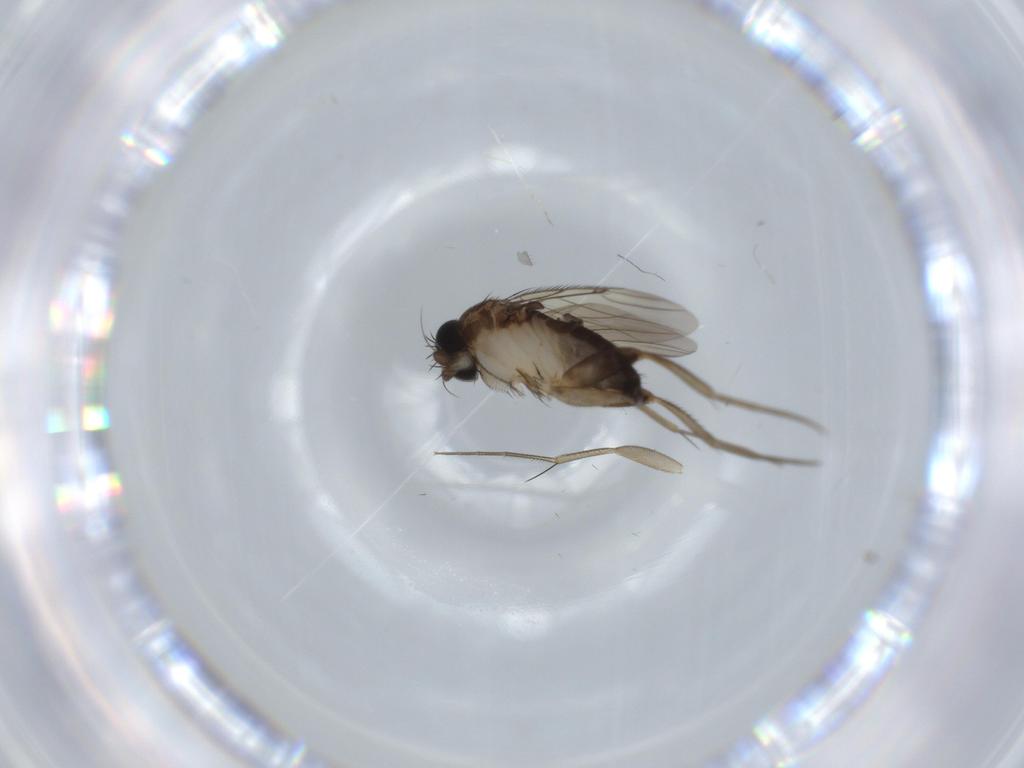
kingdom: Animalia
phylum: Arthropoda
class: Insecta
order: Diptera
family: Phoridae
